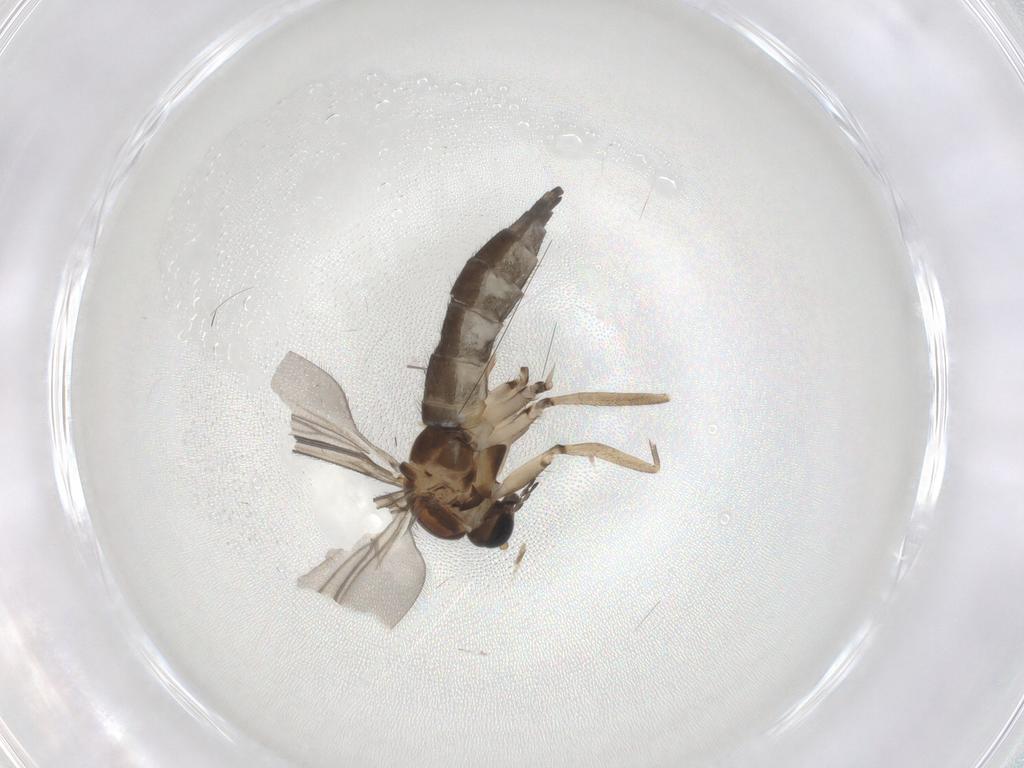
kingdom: Animalia
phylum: Arthropoda
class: Insecta
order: Diptera
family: Sciaridae
